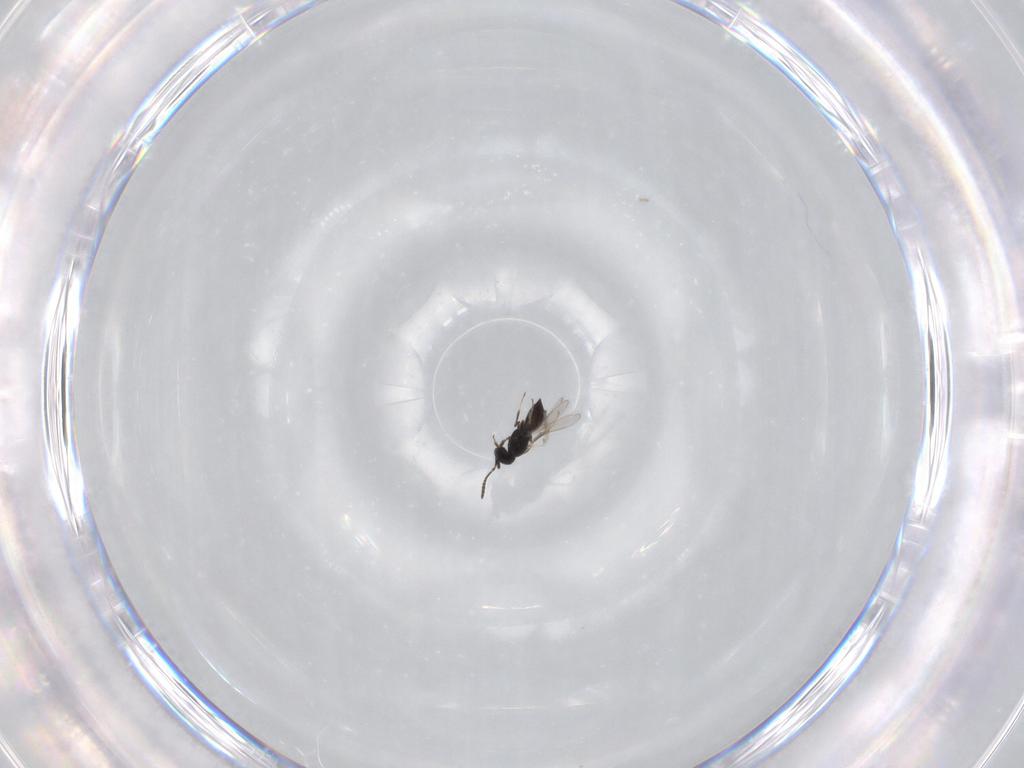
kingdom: Animalia
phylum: Arthropoda
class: Insecta
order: Hymenoptera
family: Scelionidae
